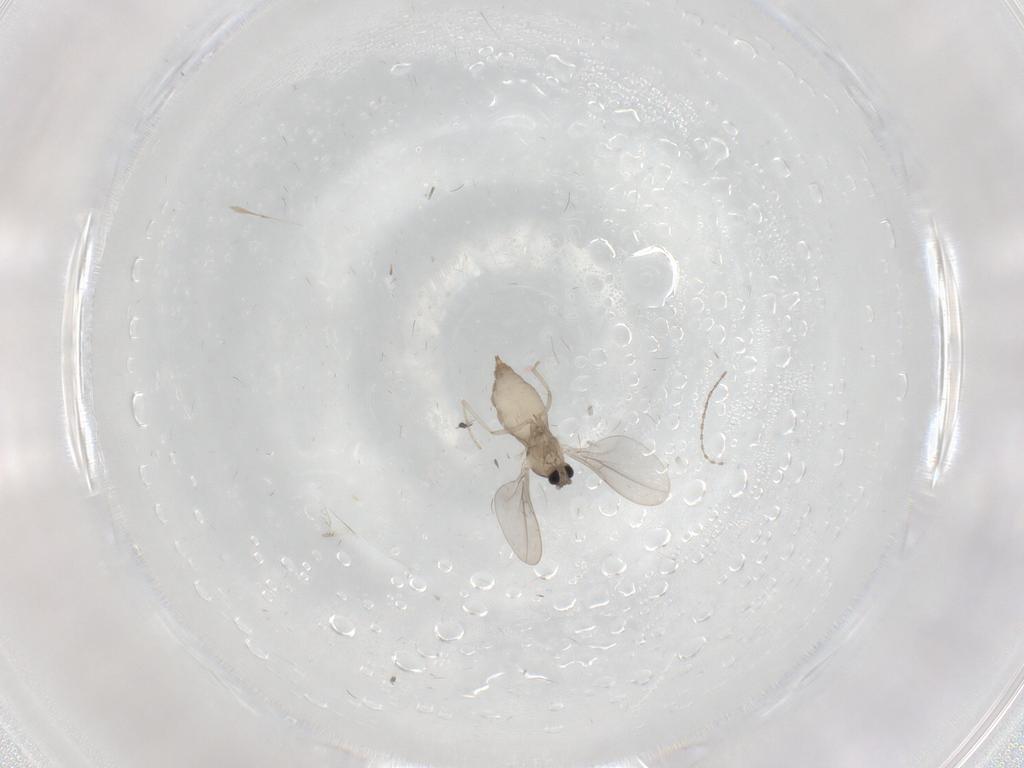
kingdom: Animalia
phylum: Arthropoda
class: Insecta
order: Diptera
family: Cecidomyiidae
